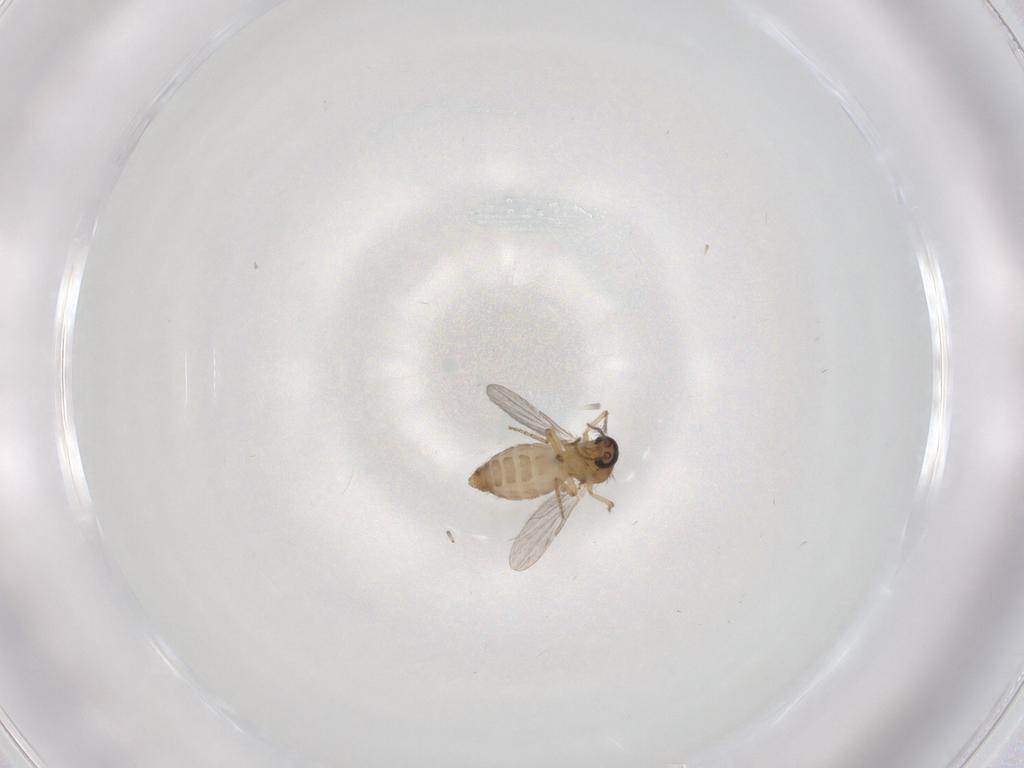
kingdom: Animalia
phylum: Arthropoda
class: Insecta
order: Diptera
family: Ceratopogonidae
